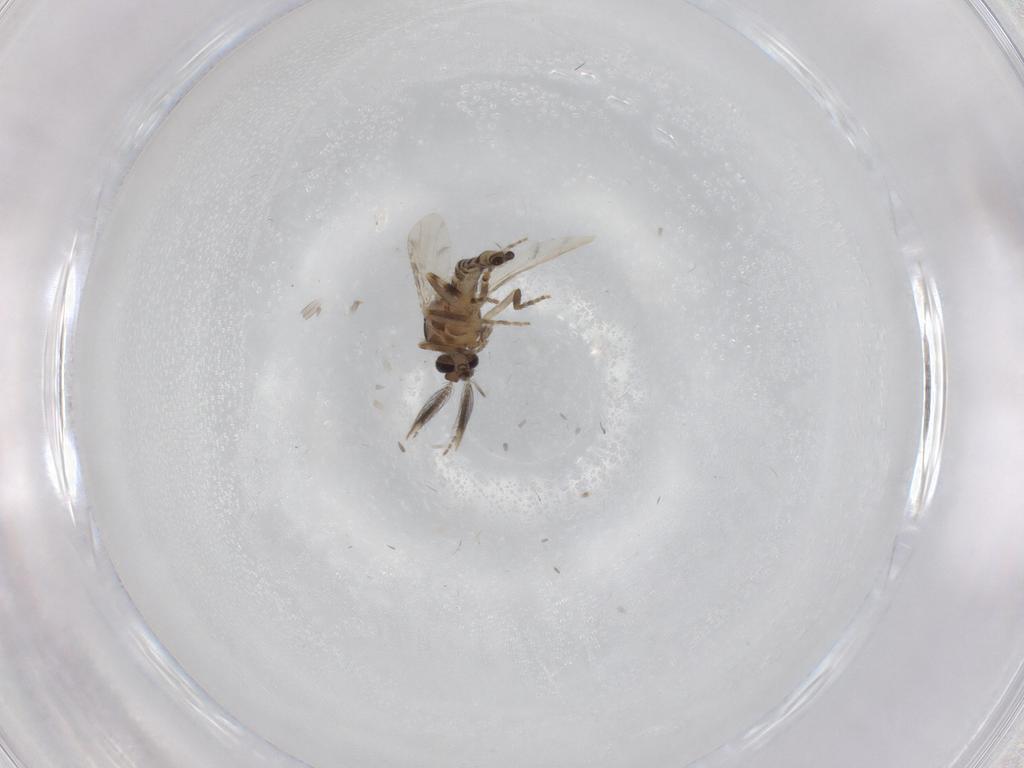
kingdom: Animalia
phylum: Arthropoda
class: Insecta
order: Diptera
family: Ceratopogonidae
